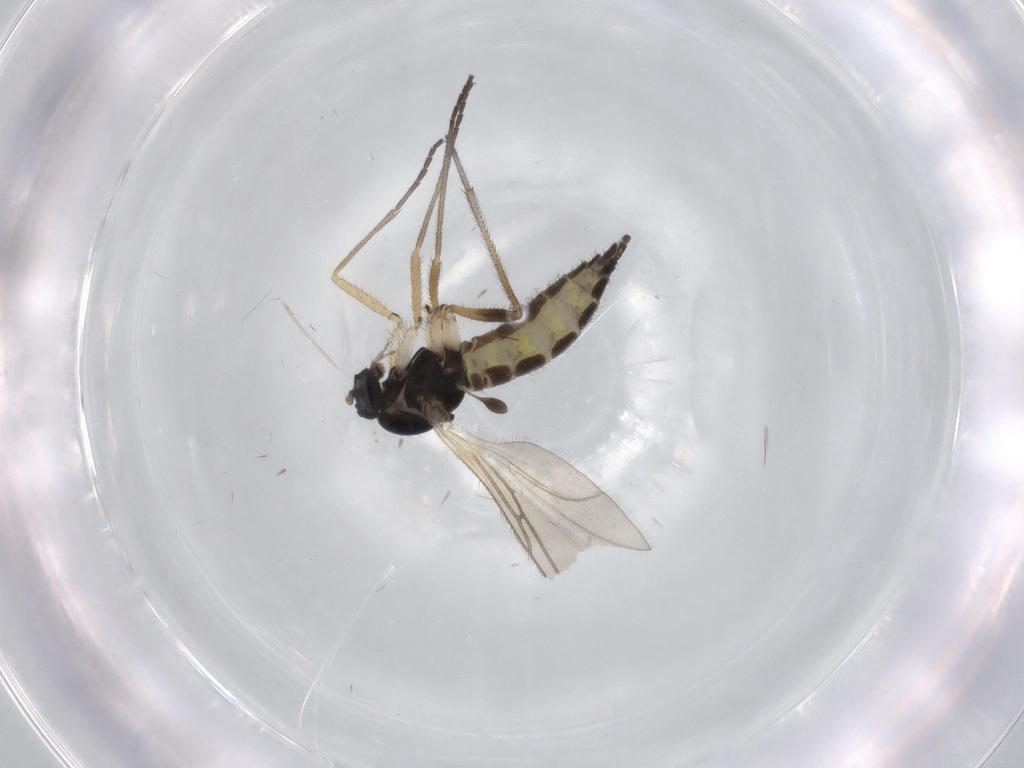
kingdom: Animalia
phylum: Arthropoda
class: Insecta
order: Diptera
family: Sciaridae
